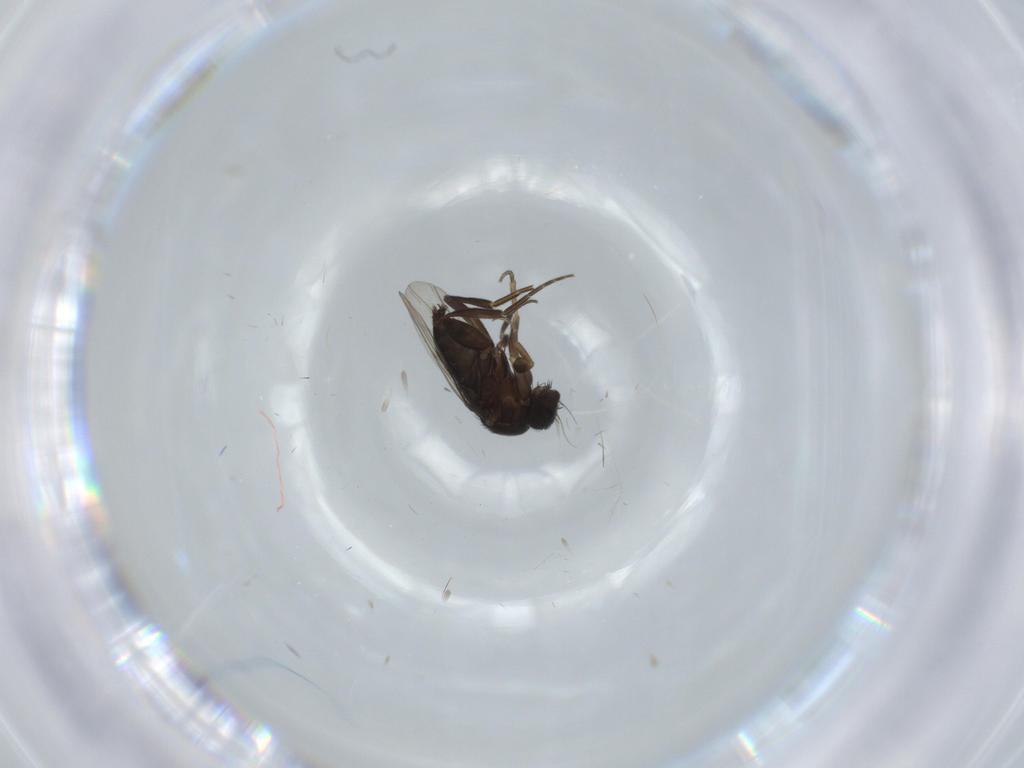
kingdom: Animalia
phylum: Arthropoda
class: Insecta
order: Diptera
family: Phoridae
